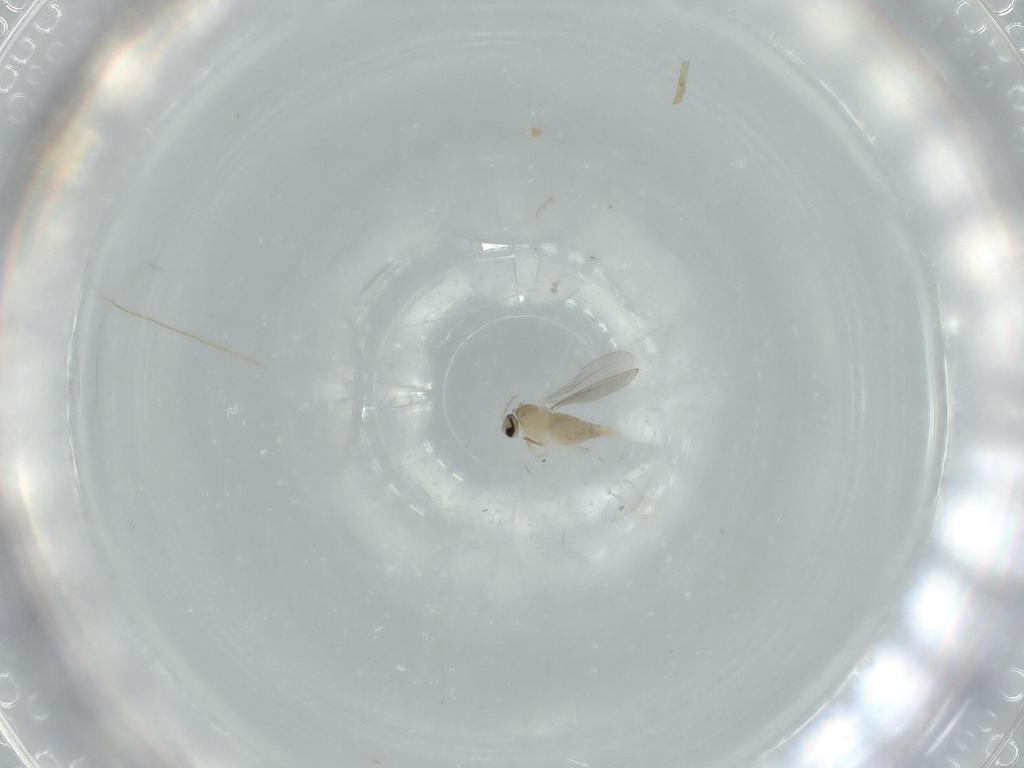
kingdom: Animalia
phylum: Arthropoda
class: Insecta
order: Diptera
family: Cecidomyiidae
